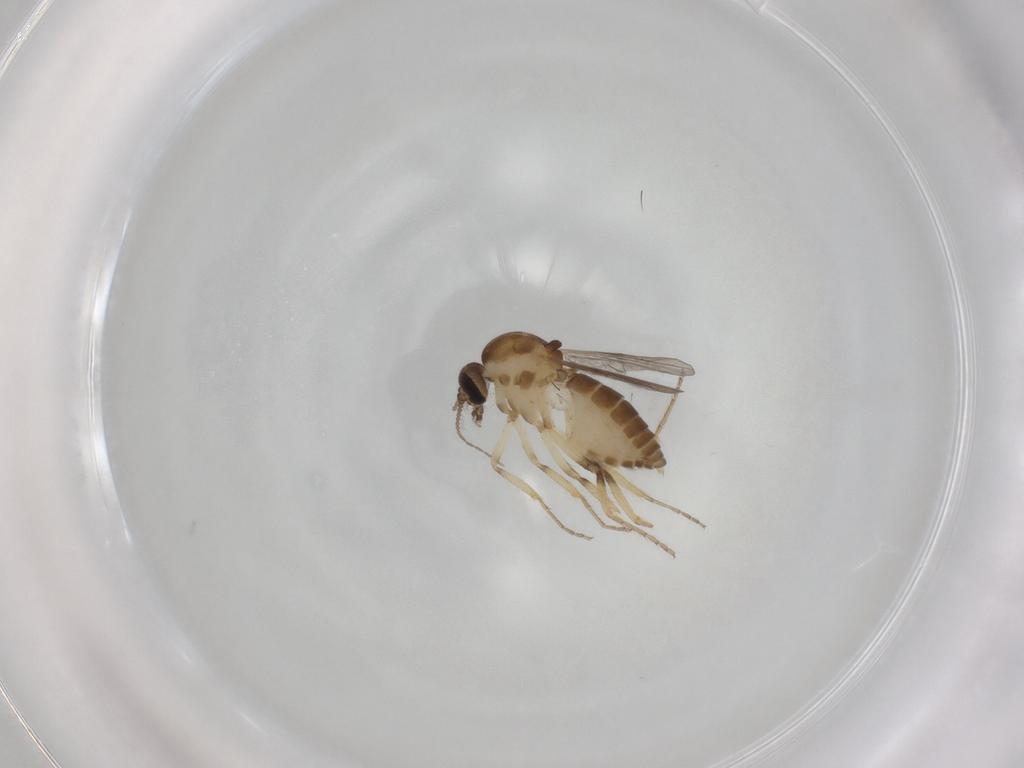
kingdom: Animalia
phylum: Arthropoda
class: Insecta
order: Diptera
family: Ceratopogonidae
